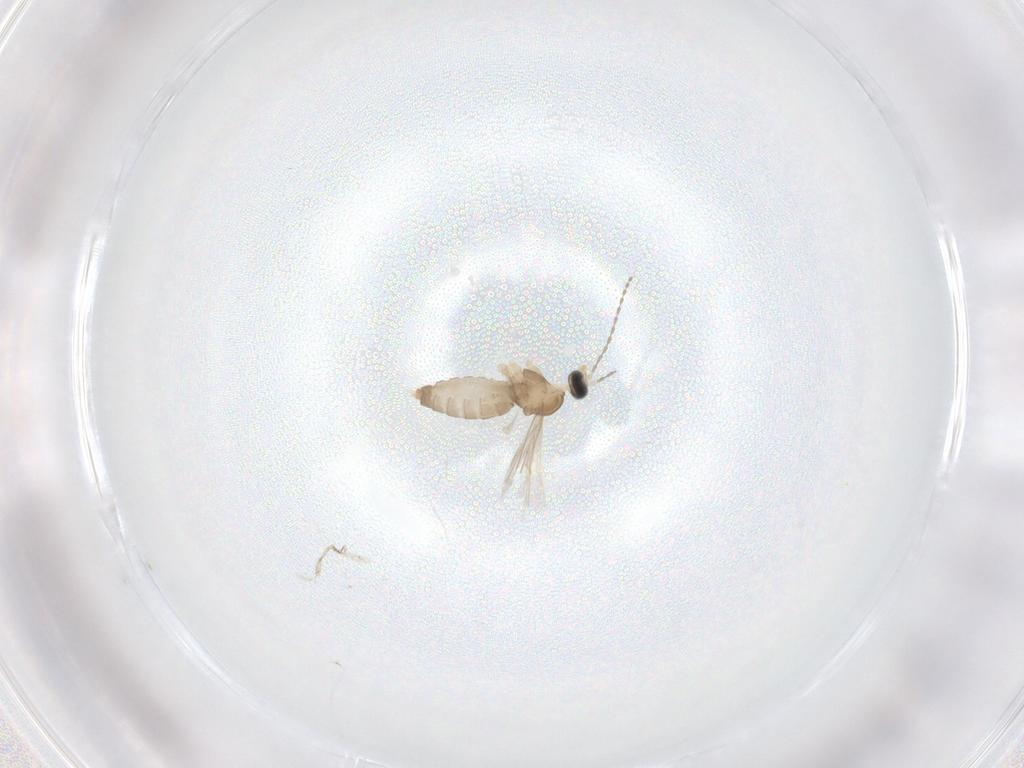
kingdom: Animalia
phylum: Arthropoda
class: Insecta
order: Diptera
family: Cecidomyiidae
